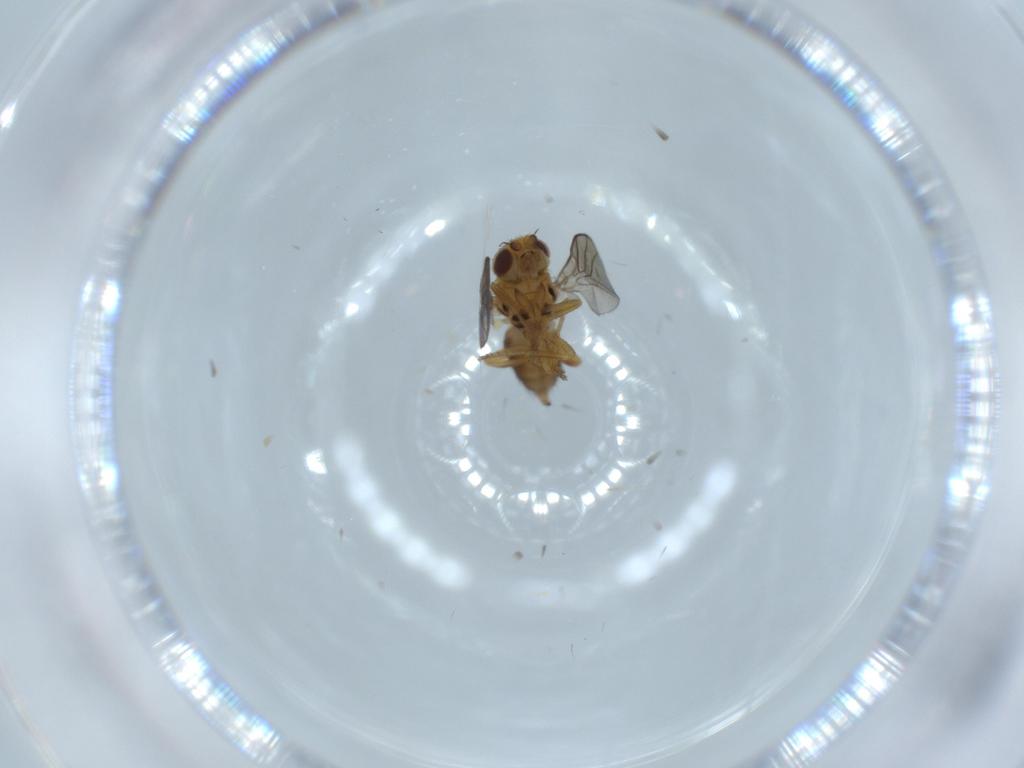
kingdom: Animalia
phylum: Arthropoda
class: Insecta
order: Diptera
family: Chloropidae
